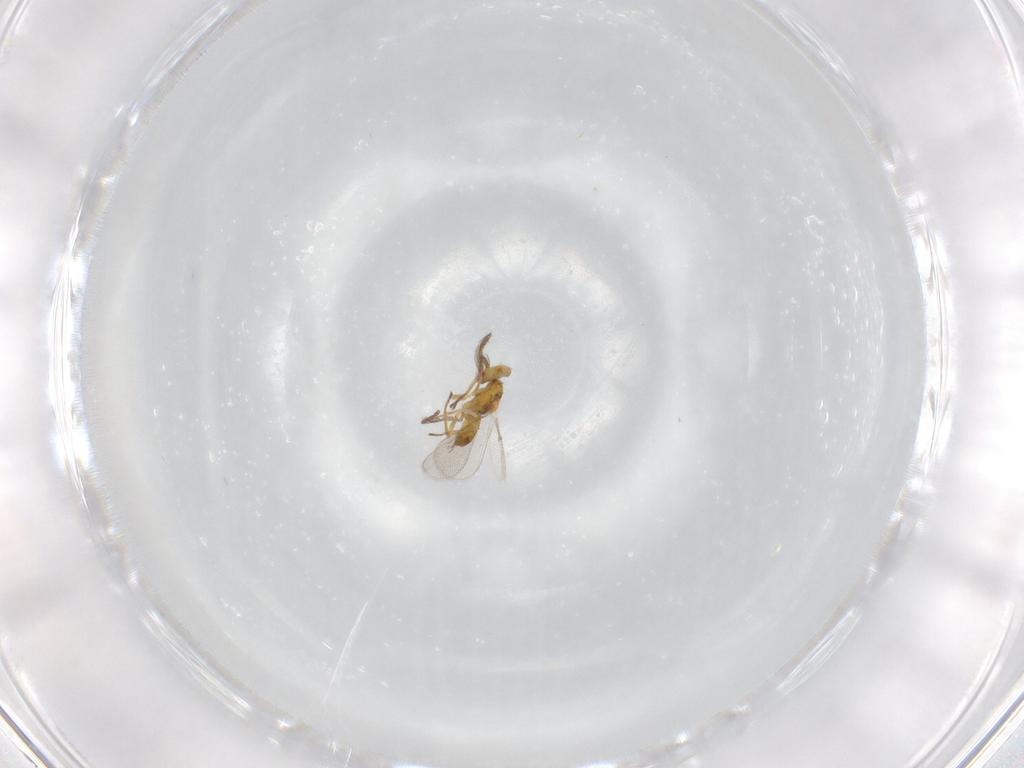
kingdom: Animalia
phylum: Arthropoda
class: Insecta
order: Hymenoptera
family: Eulophidae
